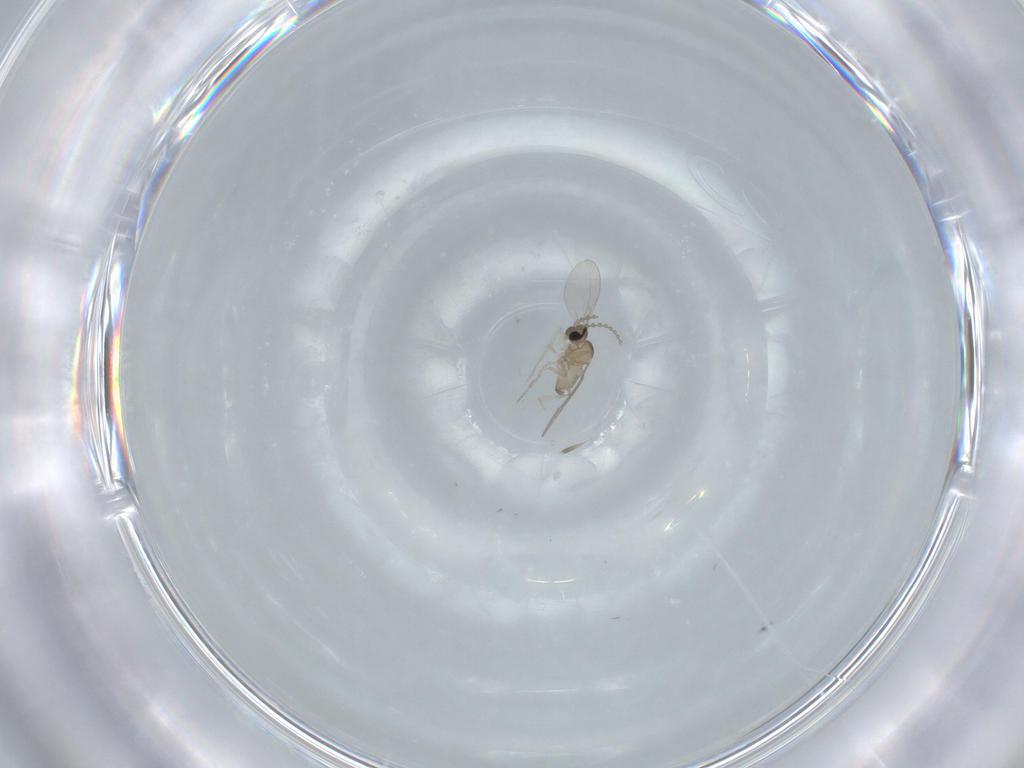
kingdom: Animalia
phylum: Arthropoda
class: Insecta
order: Diptera
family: Cecidomyiidae
